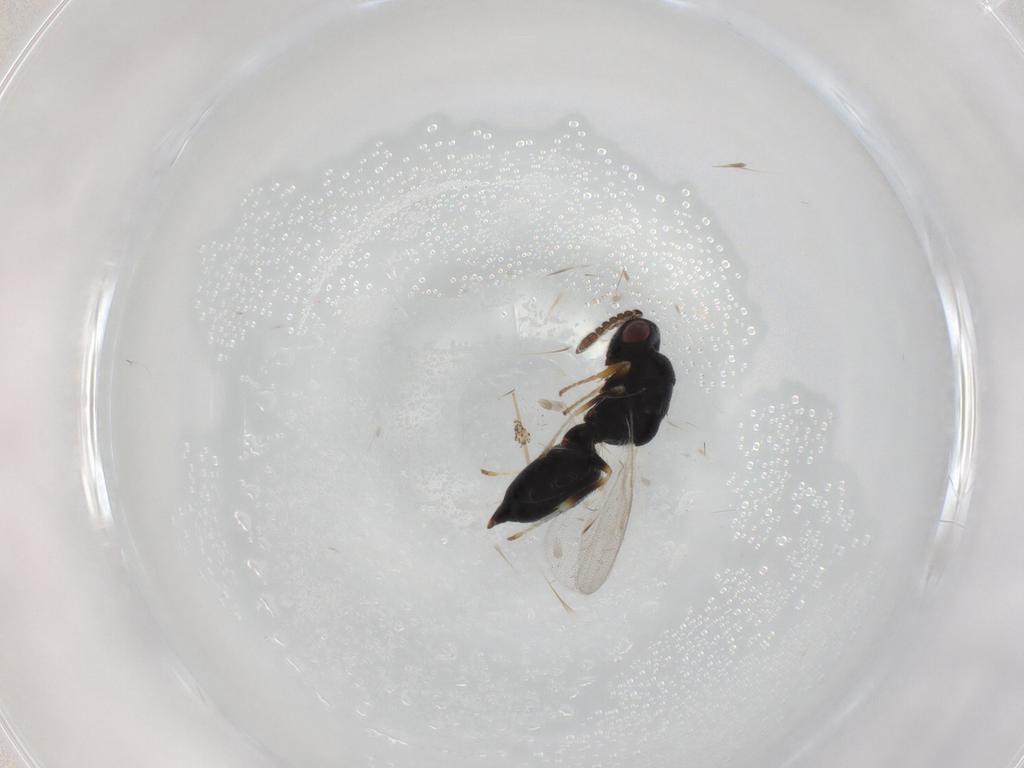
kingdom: Animalia
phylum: Arthropoda
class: Insecta
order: Hymenoptera
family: Eurytomidae
